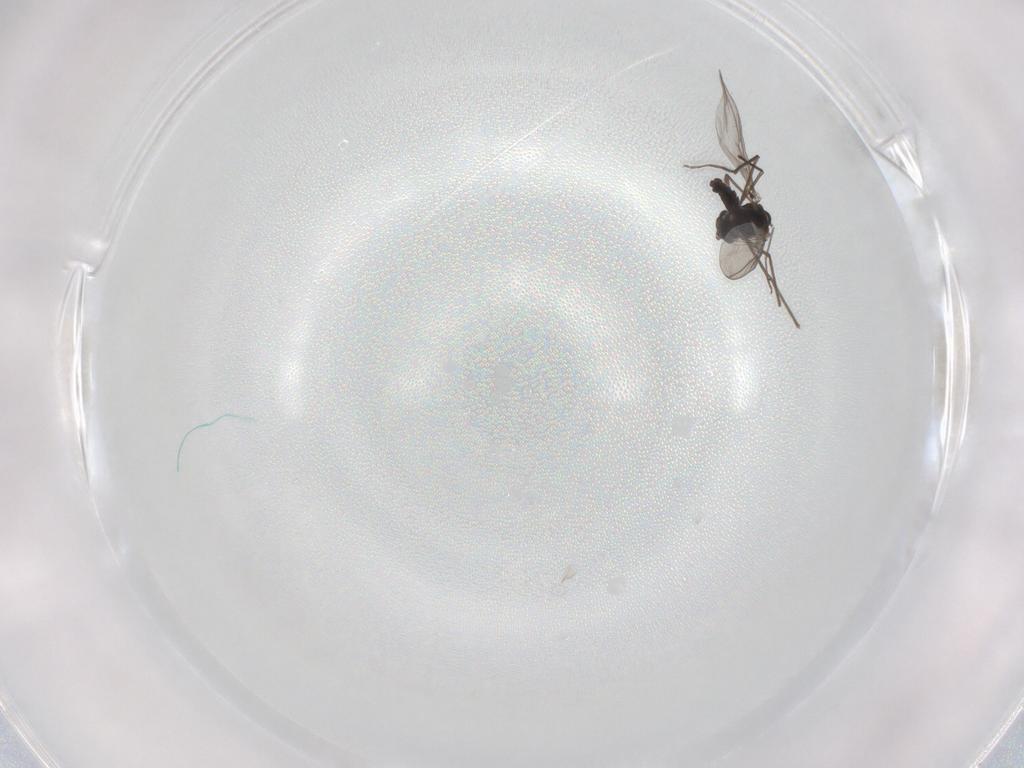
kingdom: Animalia
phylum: Arthropoda
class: Insecta
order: Diptera
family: Chironomidae
